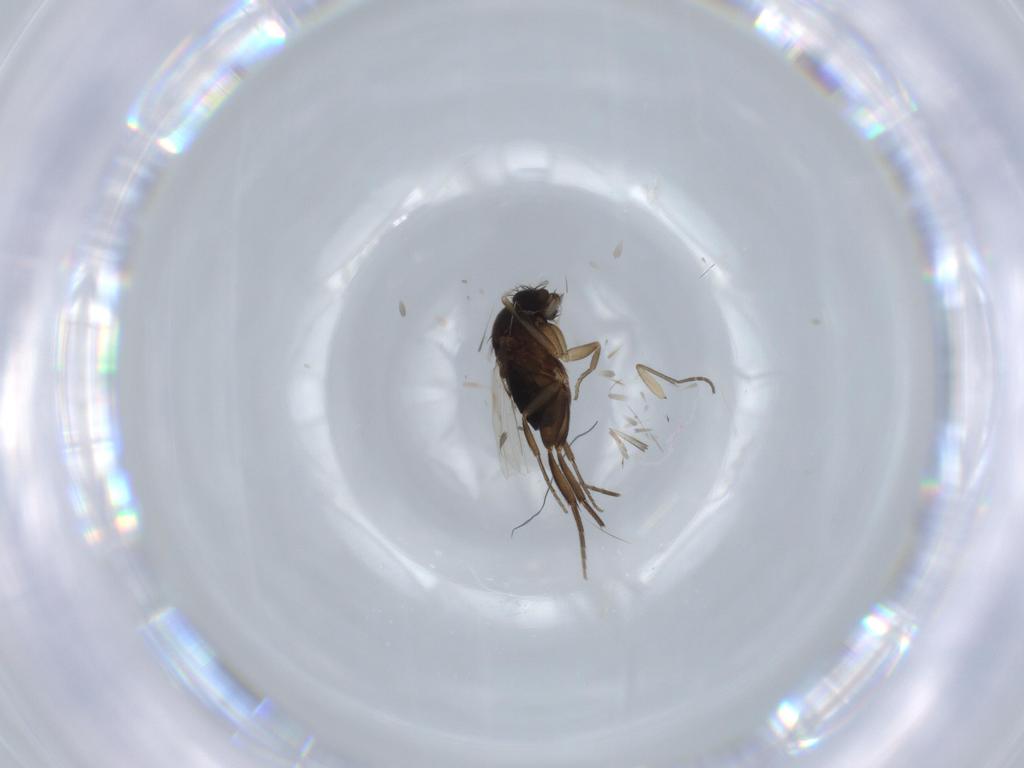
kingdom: Animalia
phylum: Arthropoda
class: Insecta
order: Diptera
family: Phoridae
